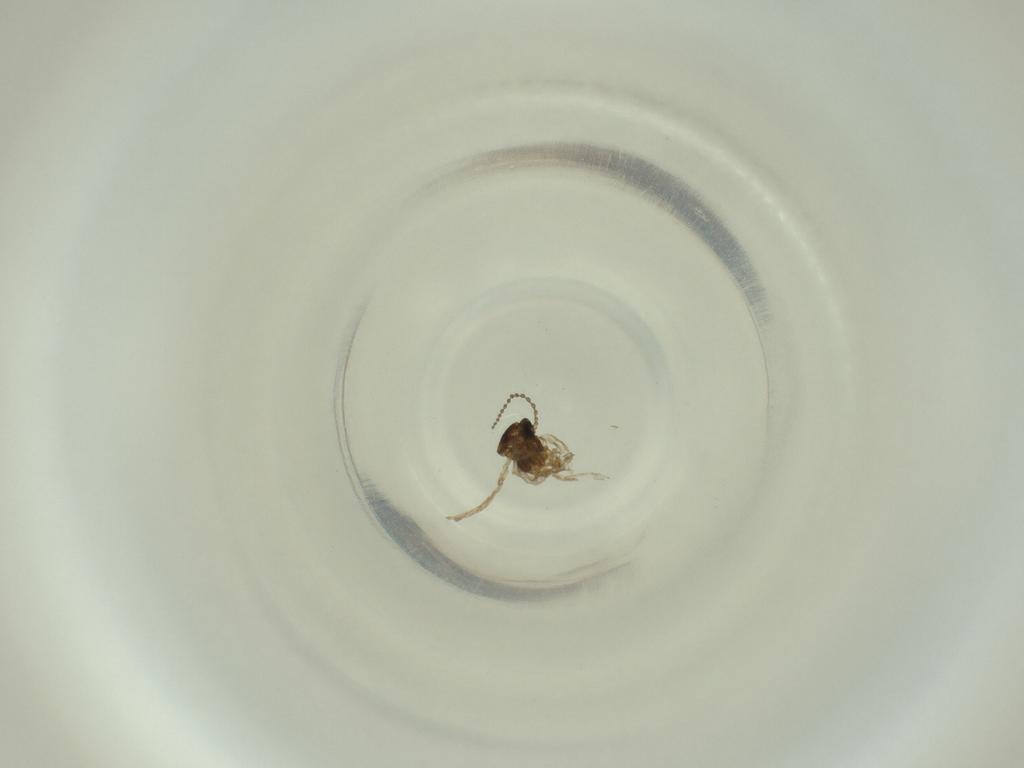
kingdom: Animalia
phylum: Arthropoda
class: Insecta
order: Diptera
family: Cecidomyiidae
